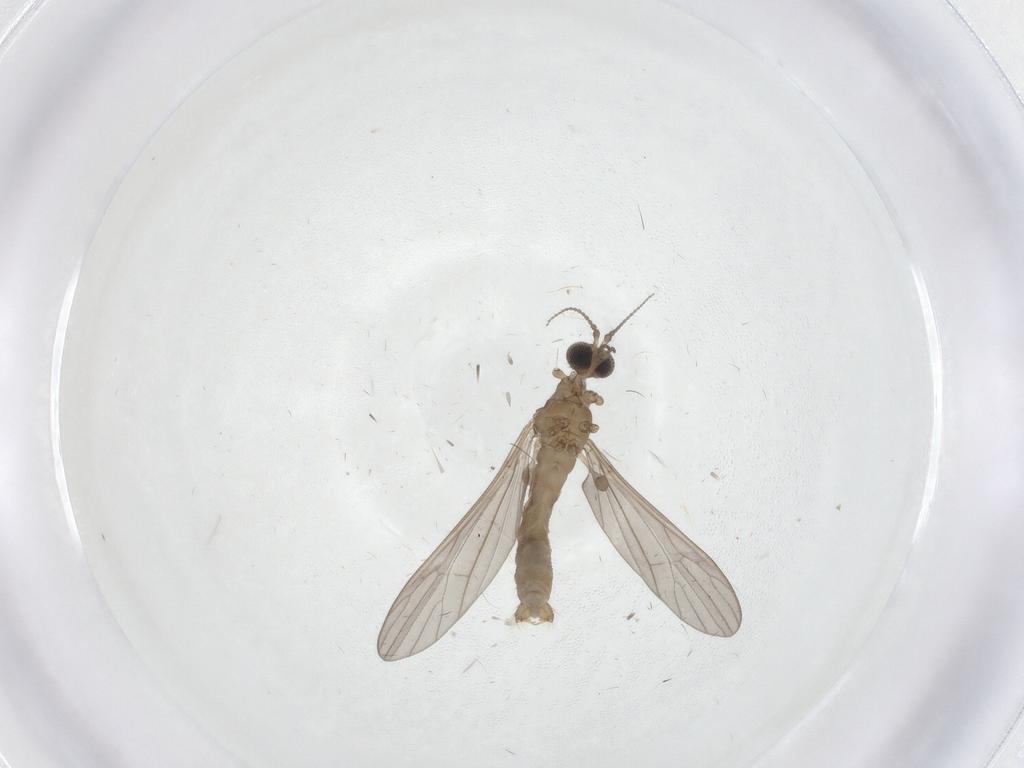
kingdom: Animalia
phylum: Arthropoda
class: Insecta
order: Diptera
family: Limoniidae
